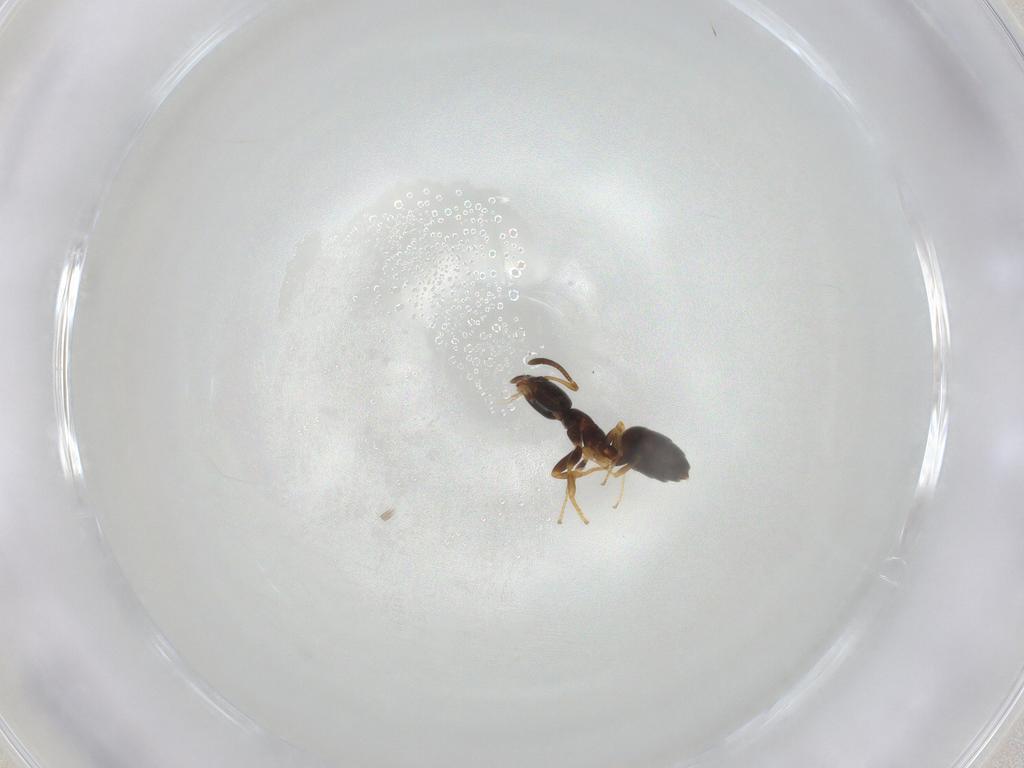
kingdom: Animalia
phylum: Arthropoda
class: Insecta
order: Hymenoptera
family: Formicidae
